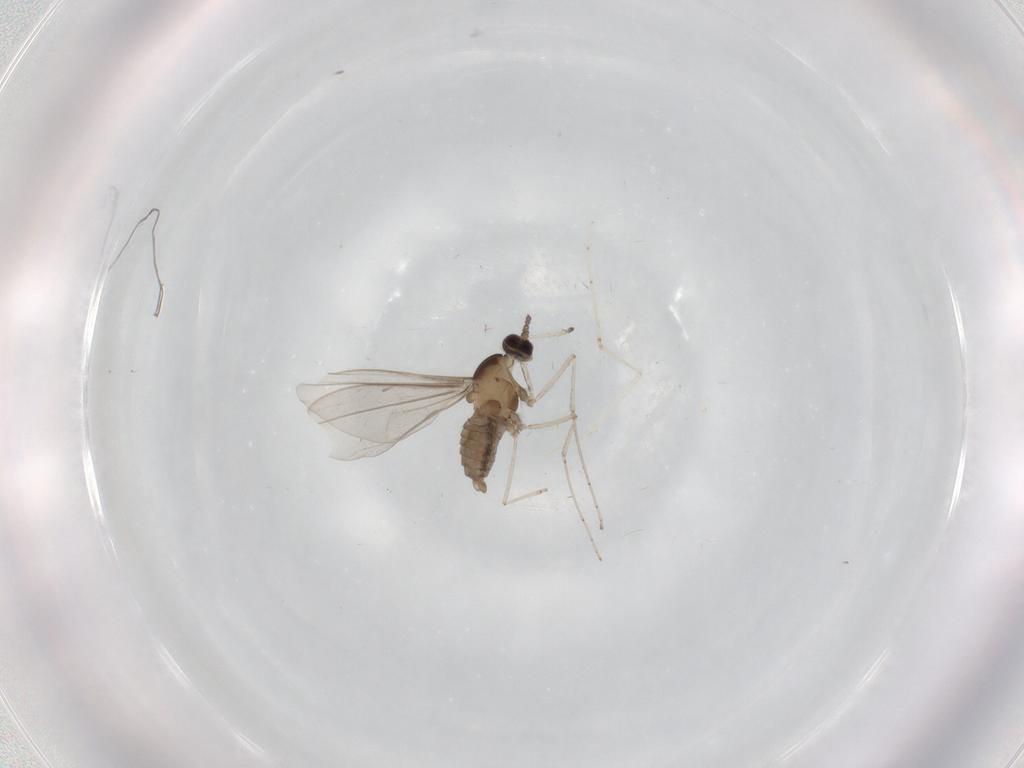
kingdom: Animalia
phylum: Arthropoda
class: Insecta
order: Diptera
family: Cecidomyiidae
